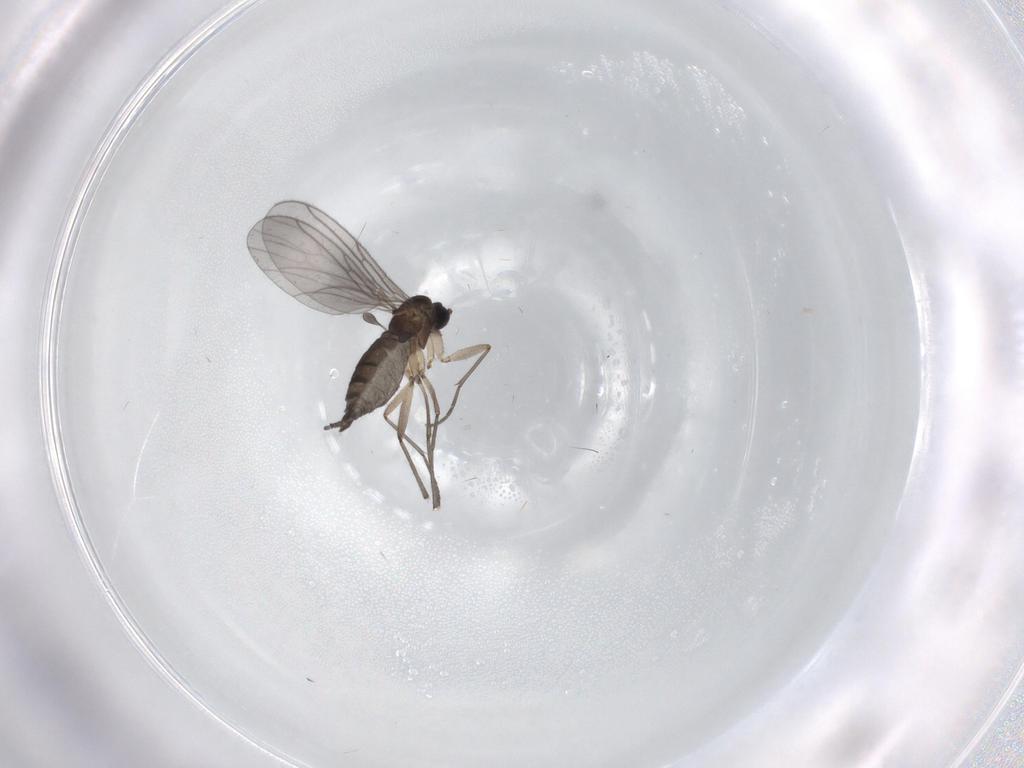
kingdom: Animalia
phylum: Arthropoda
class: Insecta
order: Diptera
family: Sciaridae
